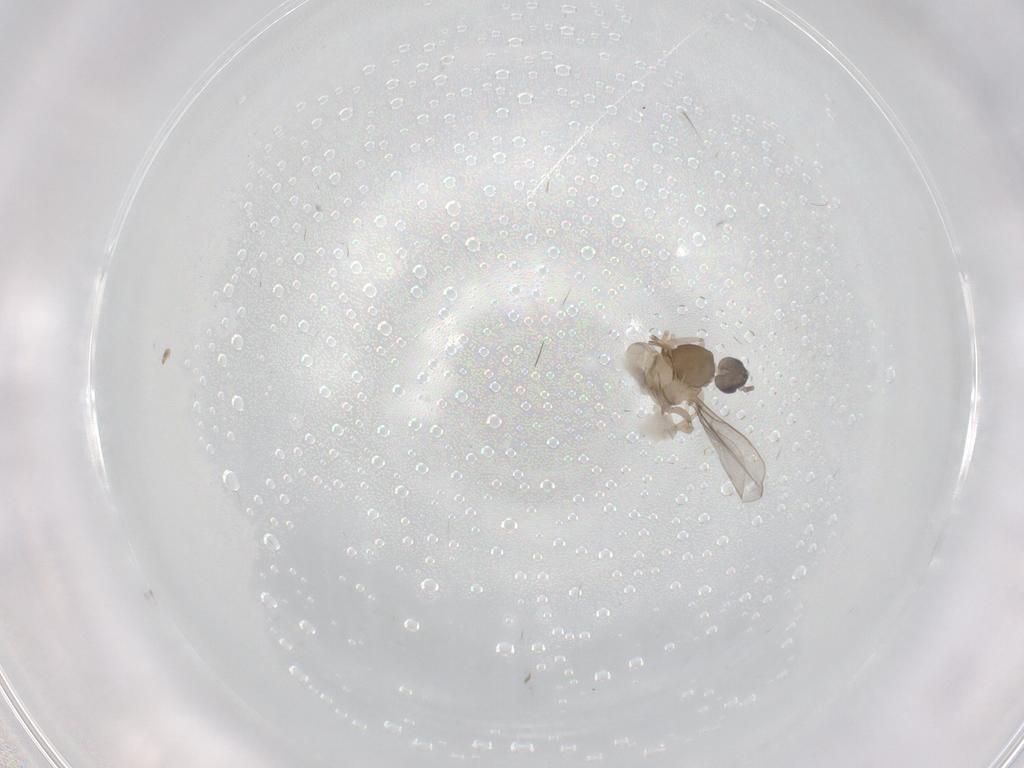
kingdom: Animalia
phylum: Arthropoda
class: Insecta
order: Diptera
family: Cecidomyiidae
